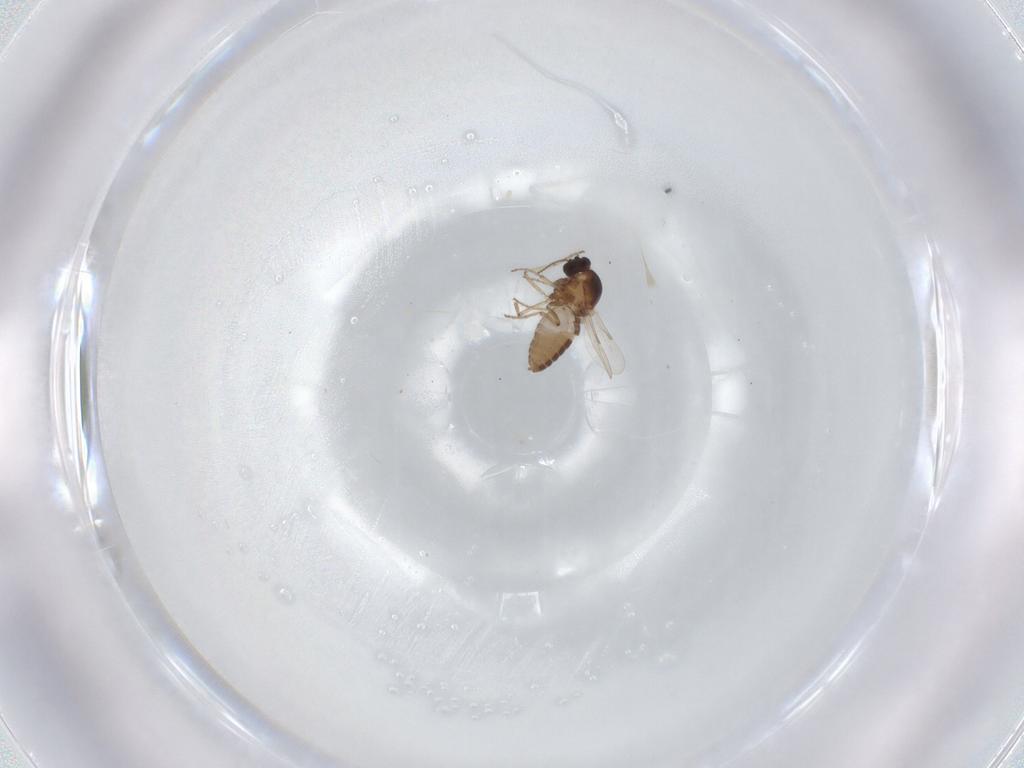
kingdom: Animalia
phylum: Arthropoda
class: Insecta
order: Diptera
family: Ceratopogonidae
